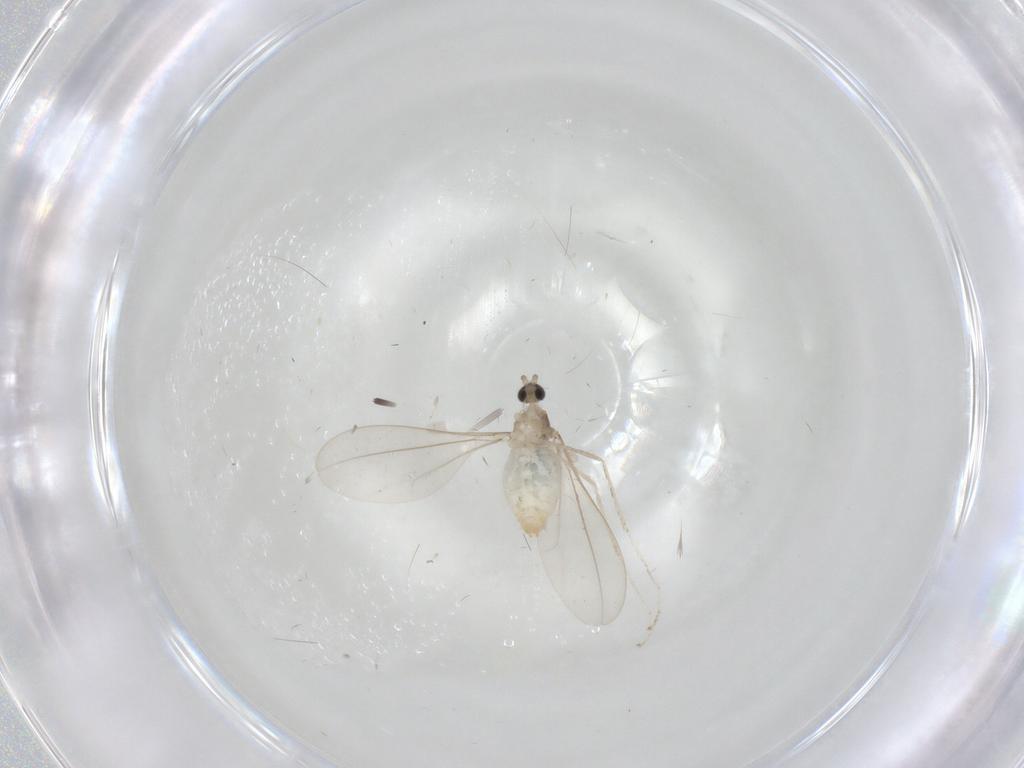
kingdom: Animalia
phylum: Arthropoda
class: Insecta
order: Diptera
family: Cecidomyiidae
